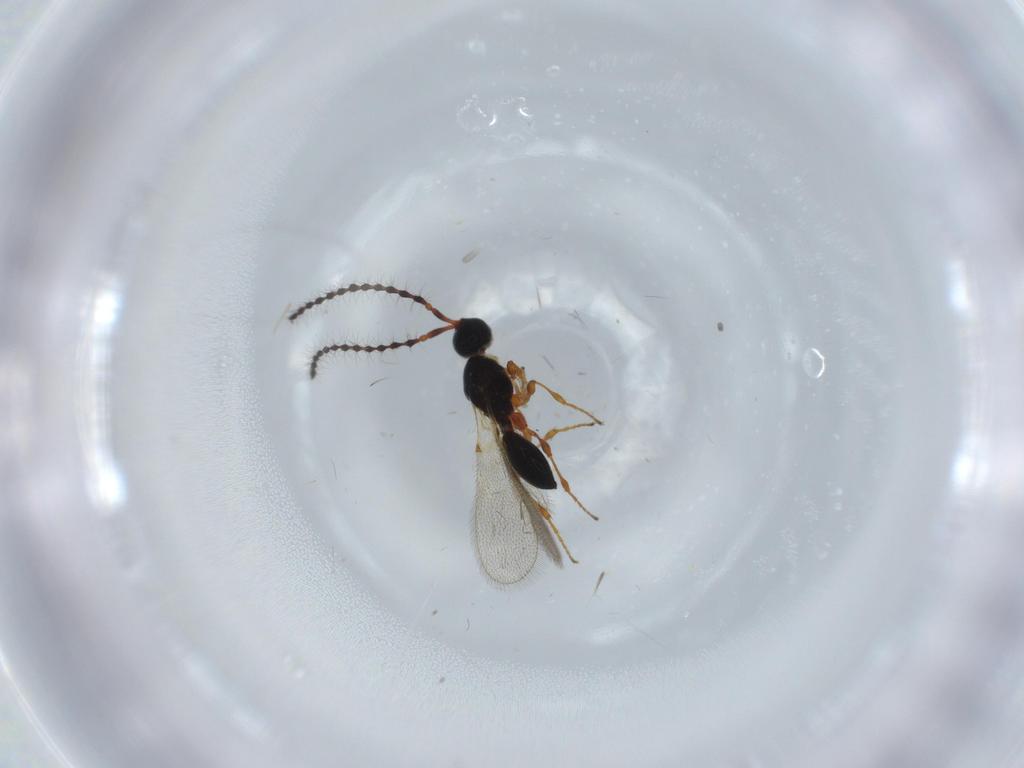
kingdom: Animalia
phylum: Arthropoda
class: Insecta
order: Hymenoptera
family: Diapriidae
